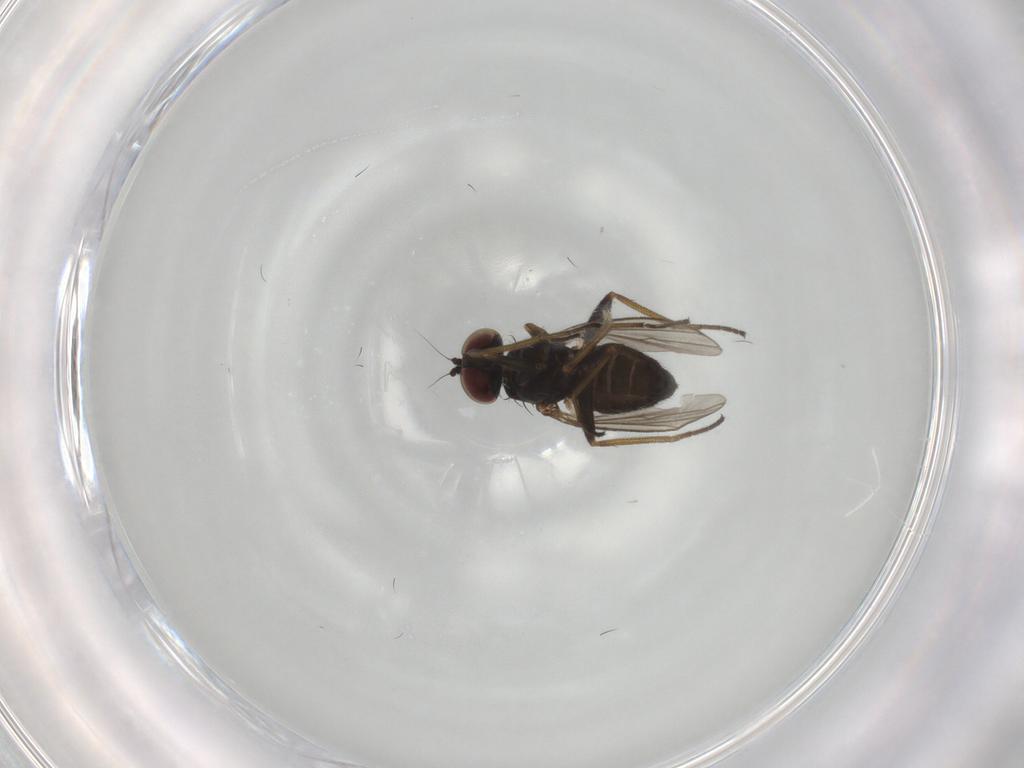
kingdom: Animalia
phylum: Arthropoda
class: Insecta
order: Diptera
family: Dolichopodidae
